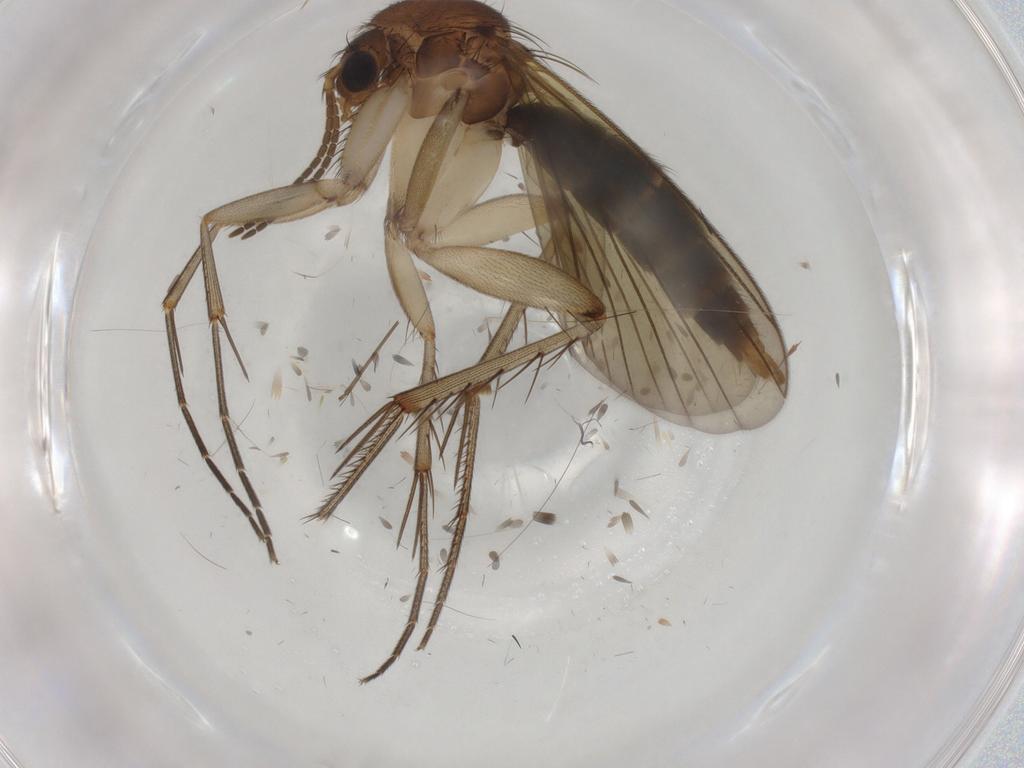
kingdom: Animalia
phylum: Arthropoda
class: Insecta
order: Diptera
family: Mycetophilidae
